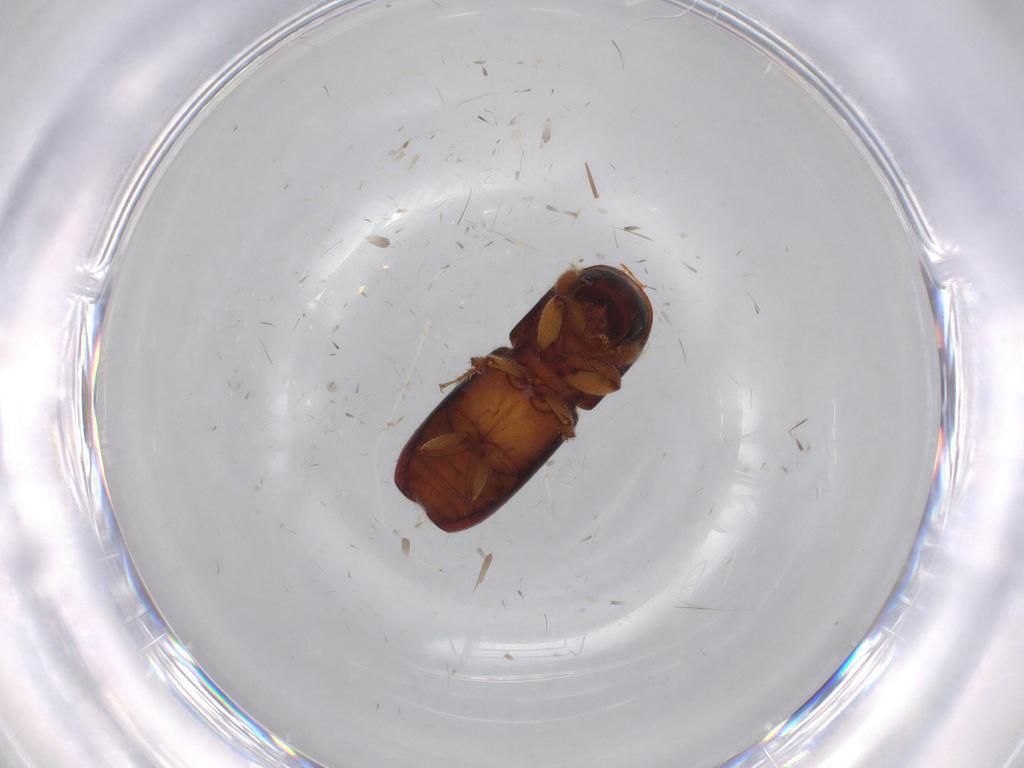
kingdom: Animalia
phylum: Arthropoda
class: Insecta
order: Coleoptera
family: Curculionidae
